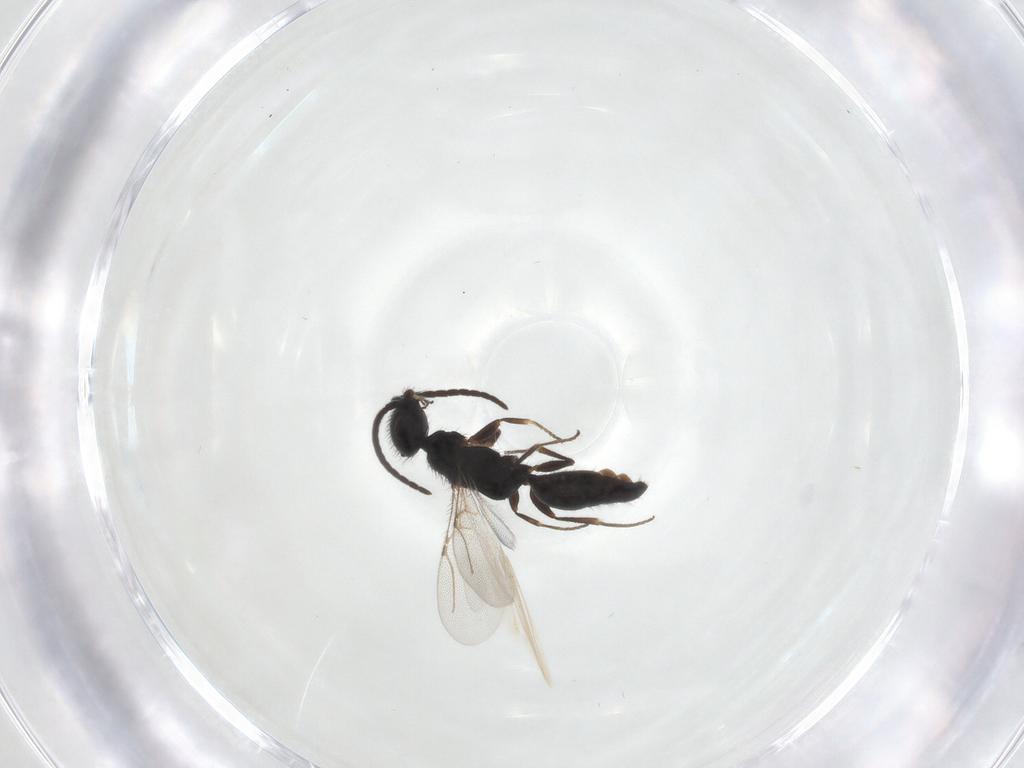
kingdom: Animalia
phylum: Arthropoda
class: Insecta
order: Hymenoptera
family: Bethylidae
